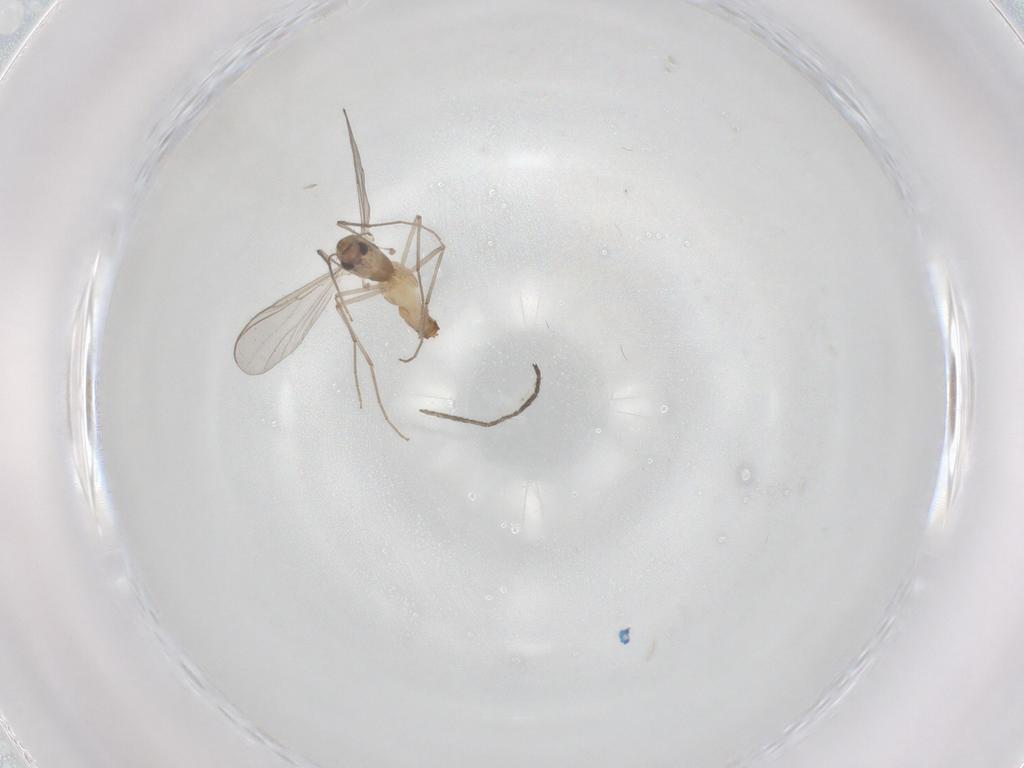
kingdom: Animalia
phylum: Arthropoda
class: Insecta
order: Diptera
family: Chironomidae
